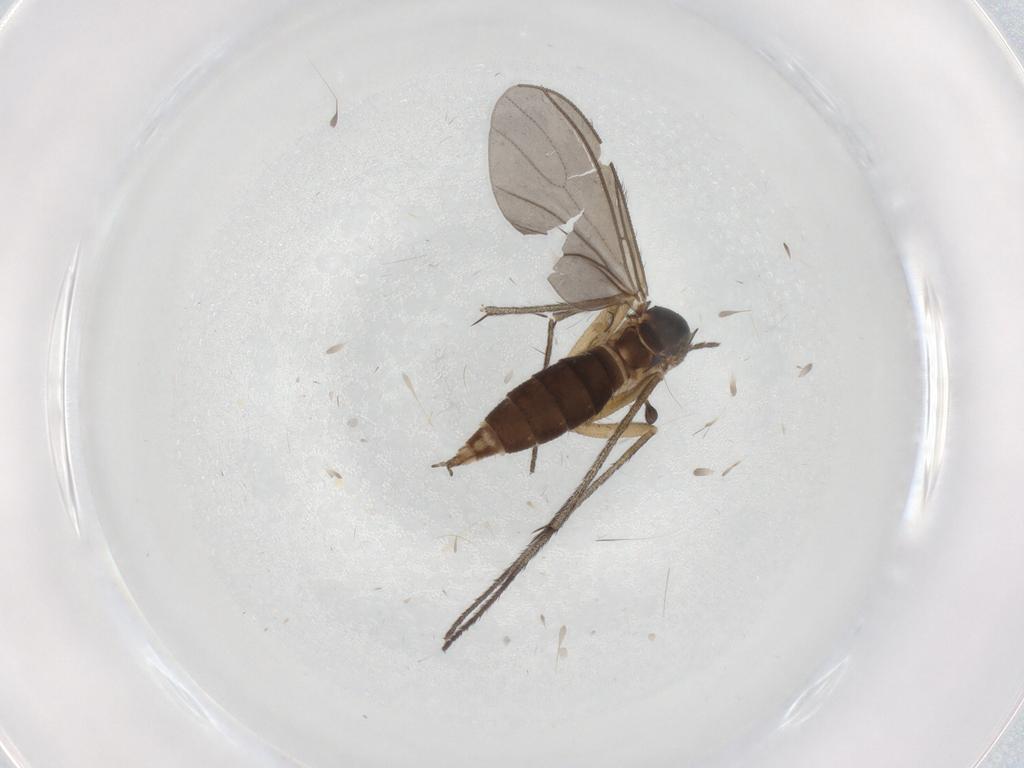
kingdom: Animalia
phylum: Arthropoda
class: Insecta
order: Diptera
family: Sciaridae
